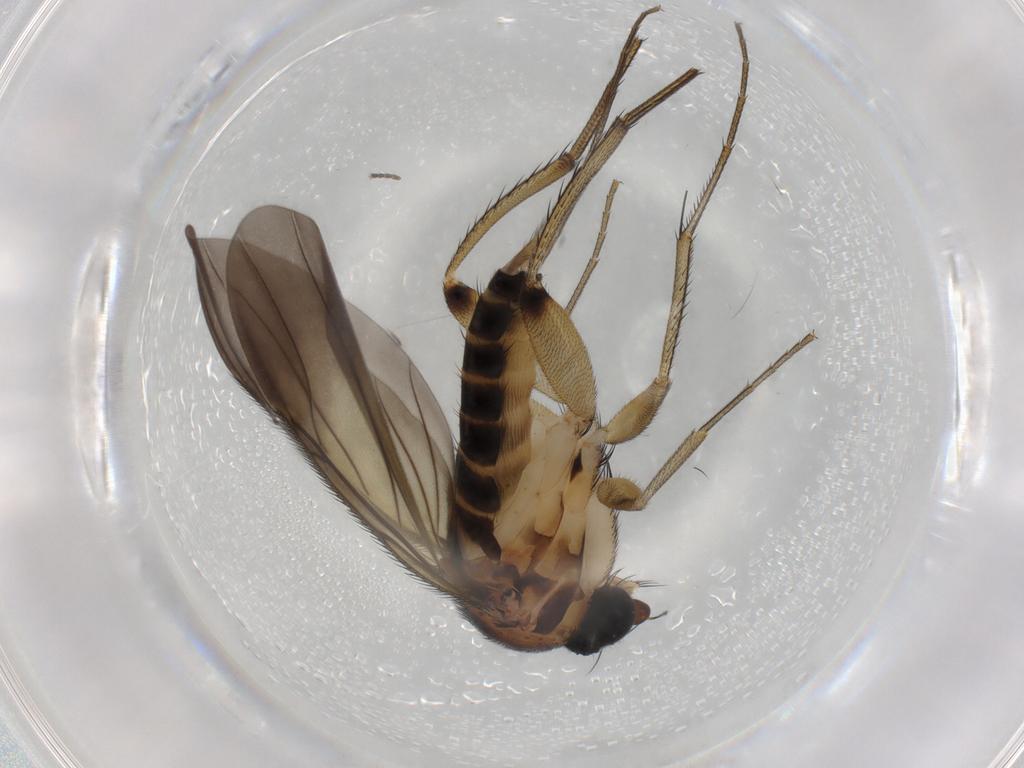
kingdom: Animalia
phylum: Arthropoda
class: Insecta
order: Diptera
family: Phoridae
